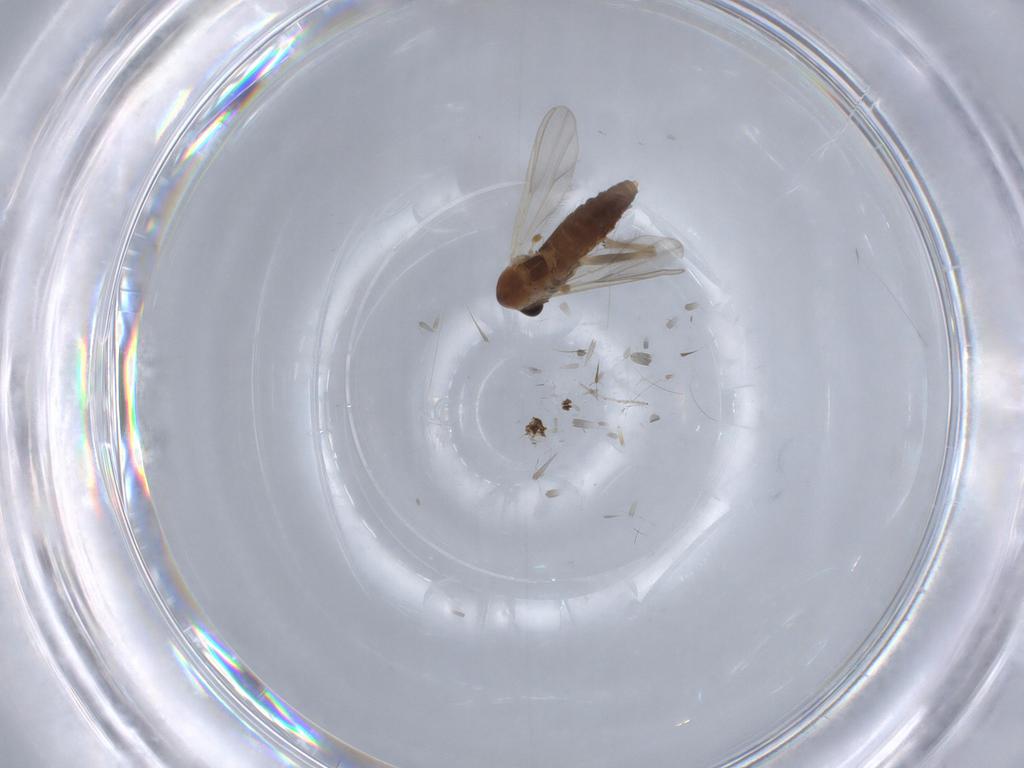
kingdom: Animalia
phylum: Arthropoda
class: Insecta
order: Diptera
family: Chironomidae
